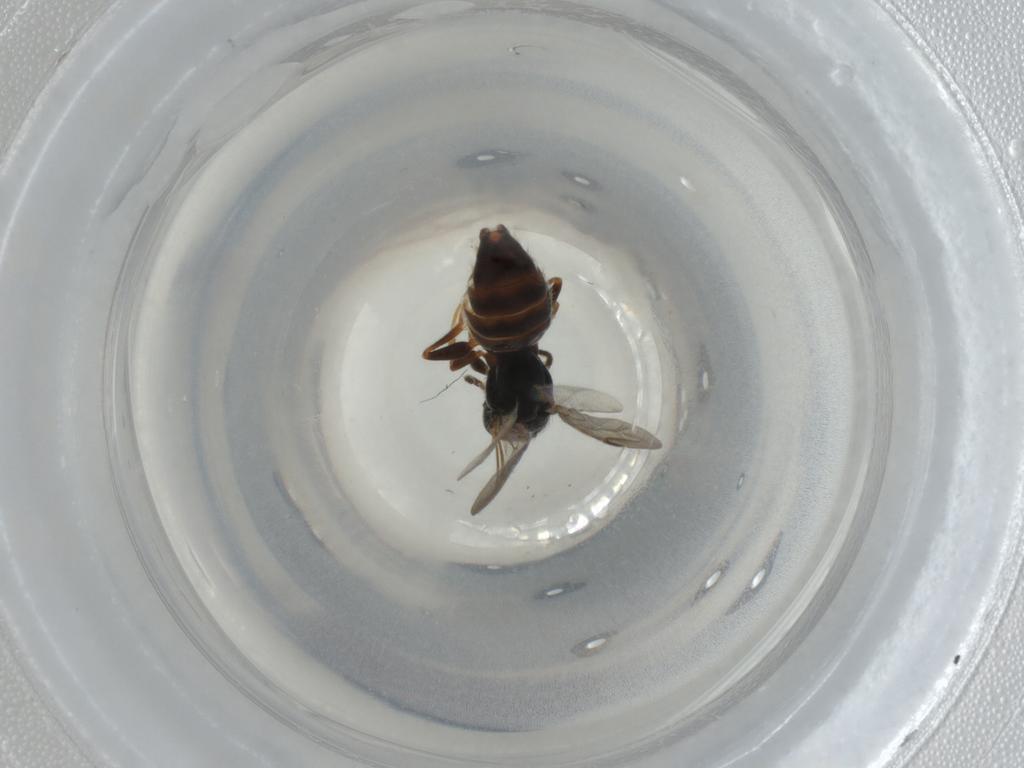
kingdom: Animalia
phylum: Arthropoda
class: Insecta
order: Hymenoptera
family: Bethylidae
